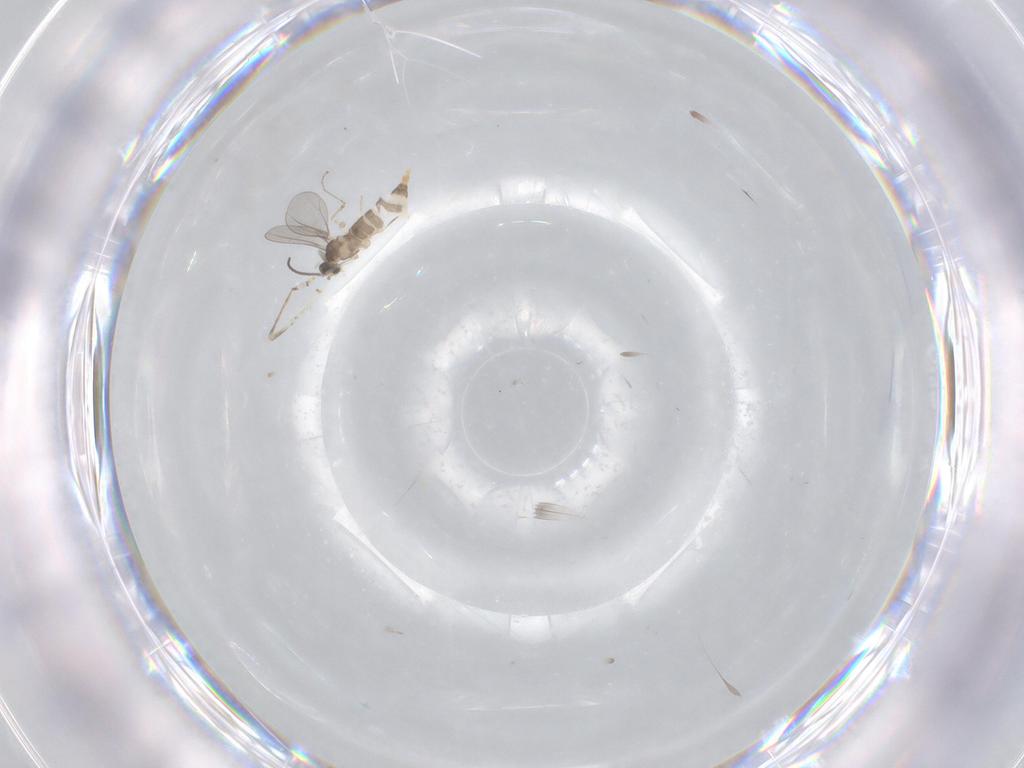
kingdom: Animalia
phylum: Arthropoda
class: Insecta
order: Diptera
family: Cecidomyiidae
